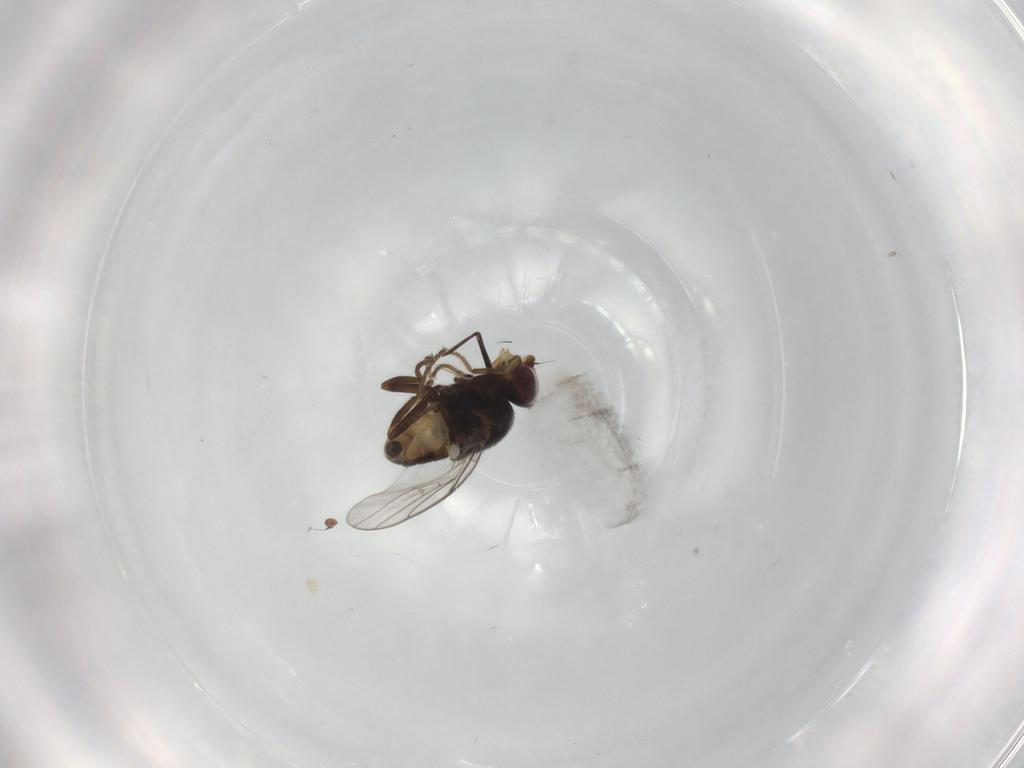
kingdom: Animalia
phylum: Arthropoda
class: Insecta
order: Diptera
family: Chloropidae
